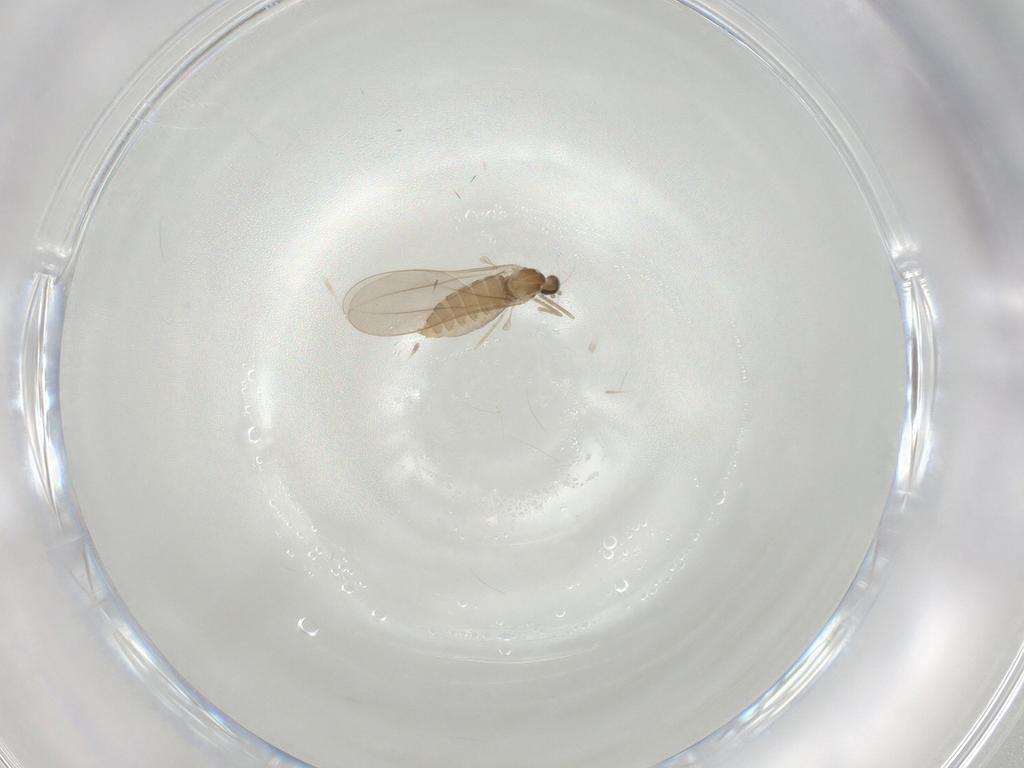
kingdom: Animalia
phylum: Arthropoda
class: Insecta
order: Diptera
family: Cecidomyiidae
